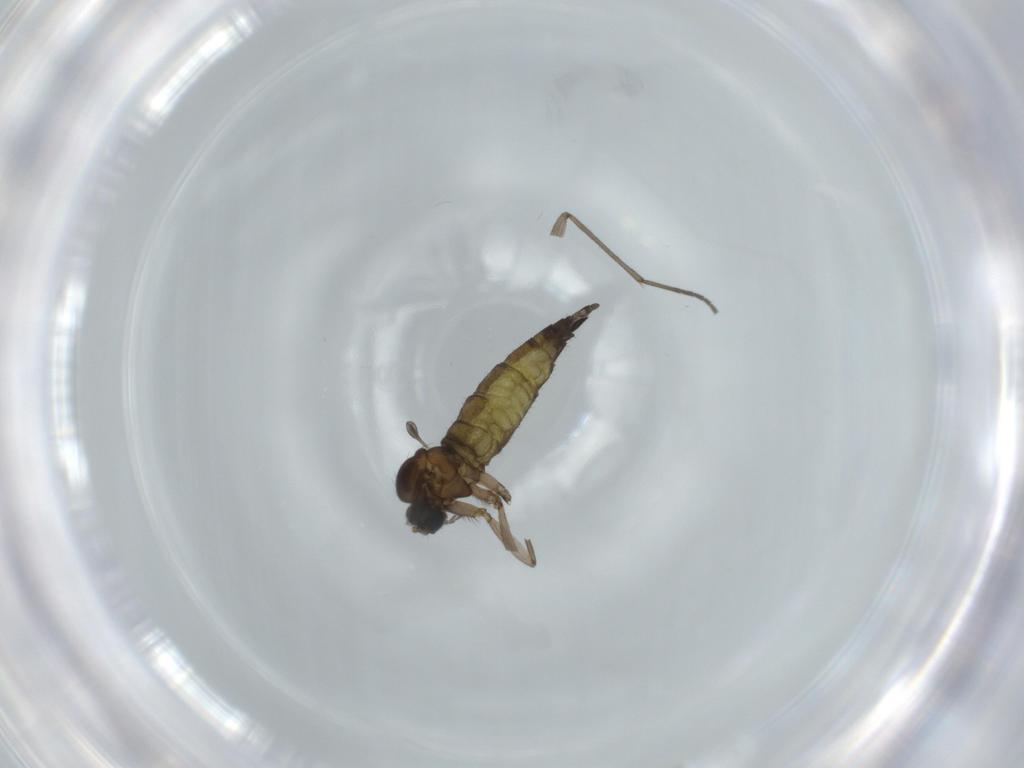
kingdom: Animalia
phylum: Arthropoda
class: Insecta
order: Diptera
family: Sciaridae
